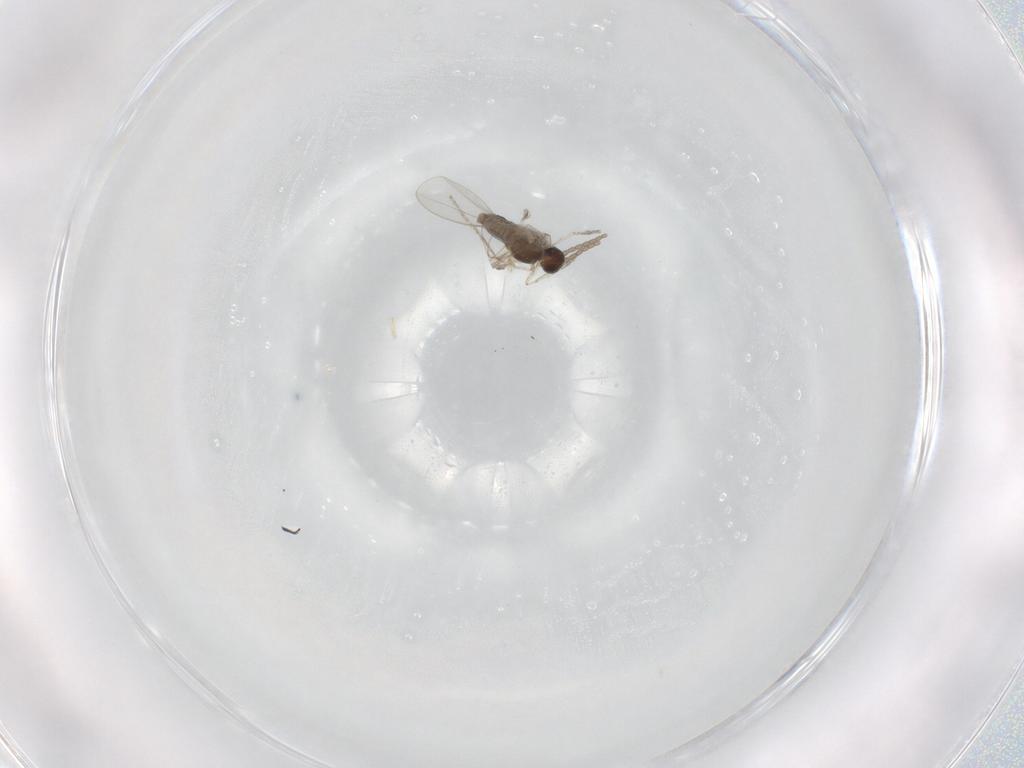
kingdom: Animalia
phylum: Arthropoda
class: Insecta
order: Diptera
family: Cecidomyiidae
